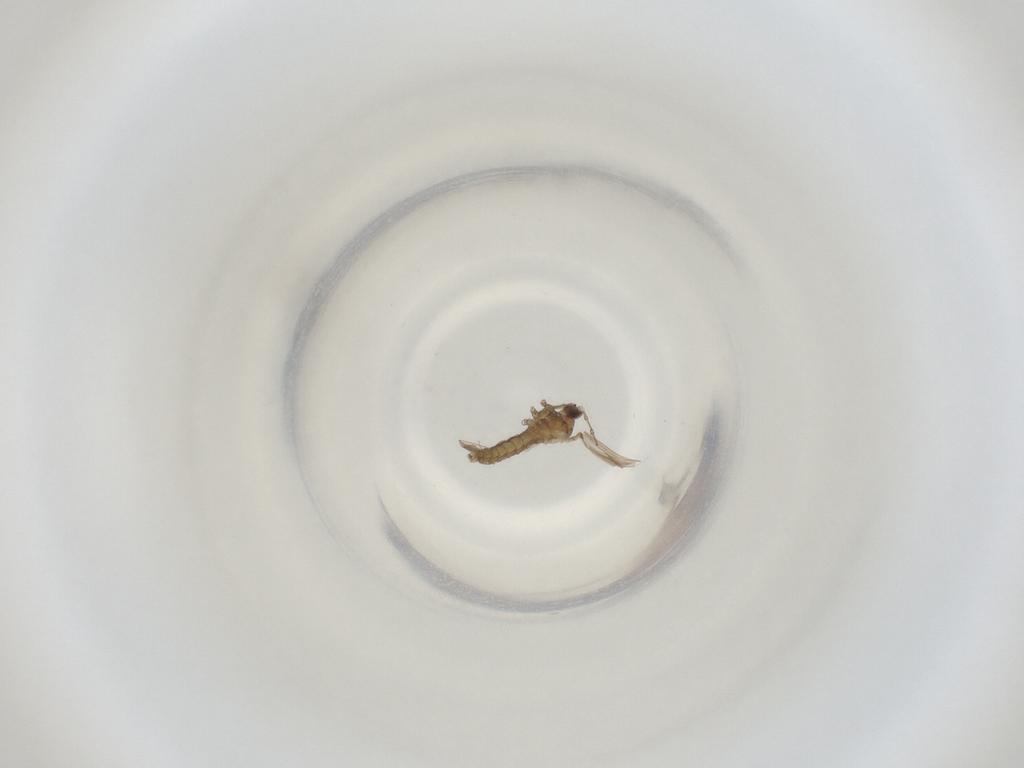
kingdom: Animalia
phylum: Arthropoda
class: Insecta
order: Diptera
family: Cecidomyiidae
